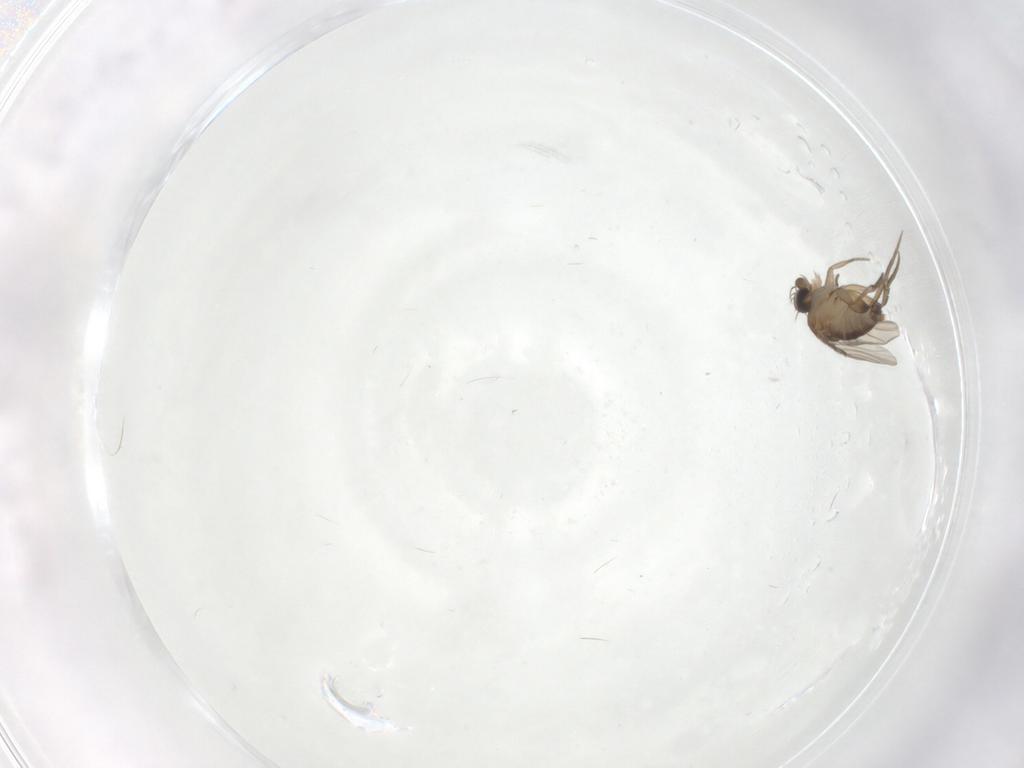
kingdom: Animalia
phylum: Arthropoda
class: Insecta
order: Diptera
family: Phoridae
